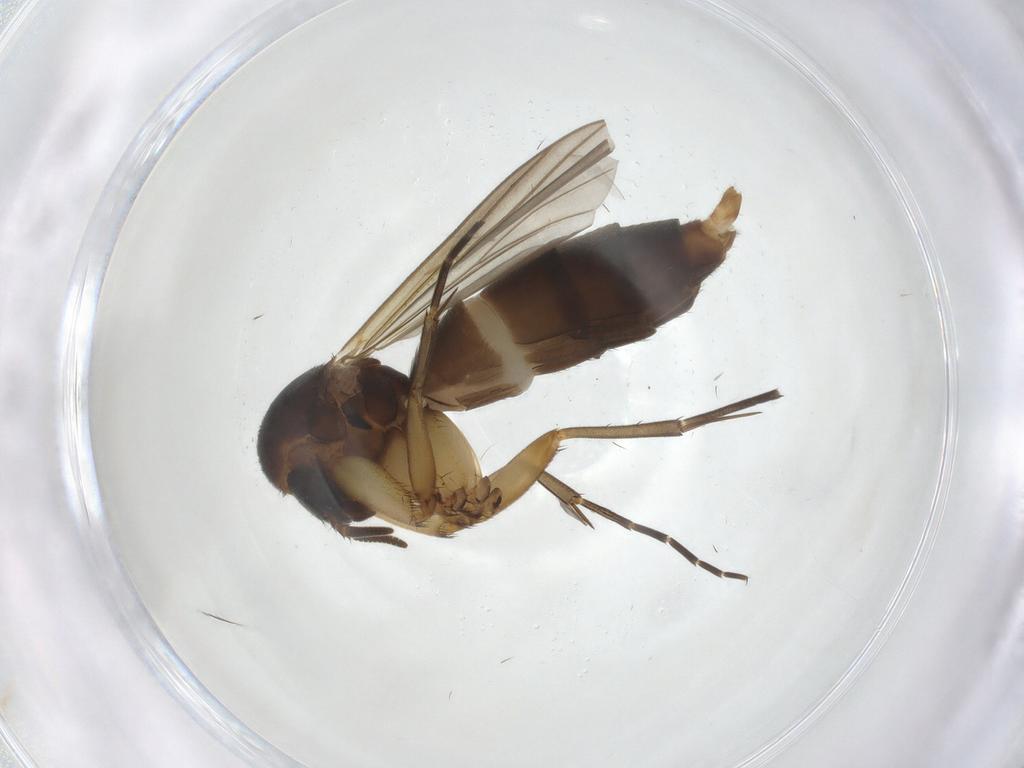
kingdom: Animalia
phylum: Arthropoda
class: Insecta
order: Diptera
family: Mycetophilidae
